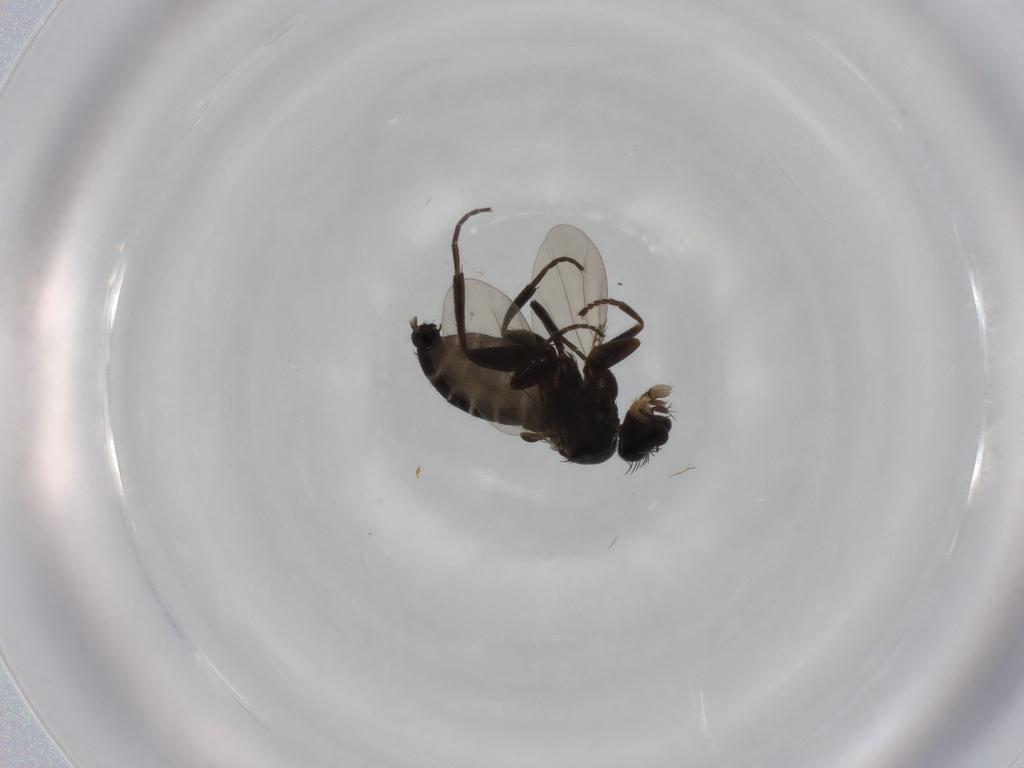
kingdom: Animalia
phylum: Arthropoda
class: Insecta
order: Diptera
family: Phoridae
